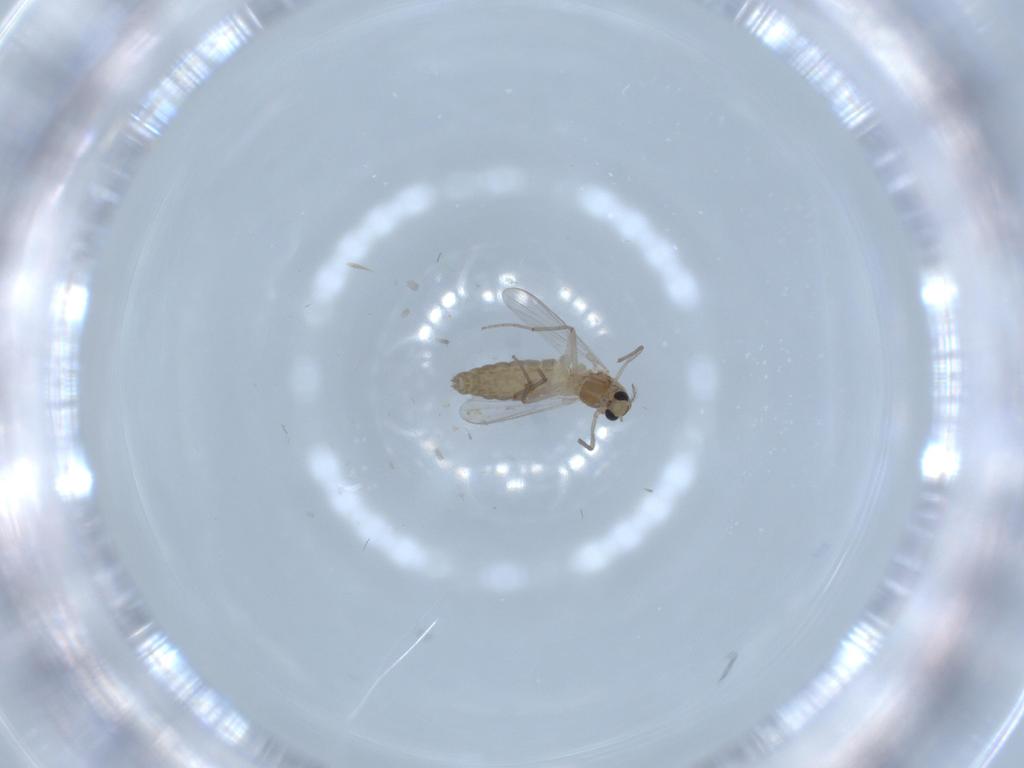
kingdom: Animalia
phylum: Arthropoda
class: Insecta
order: Diptera
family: Chironomidae
